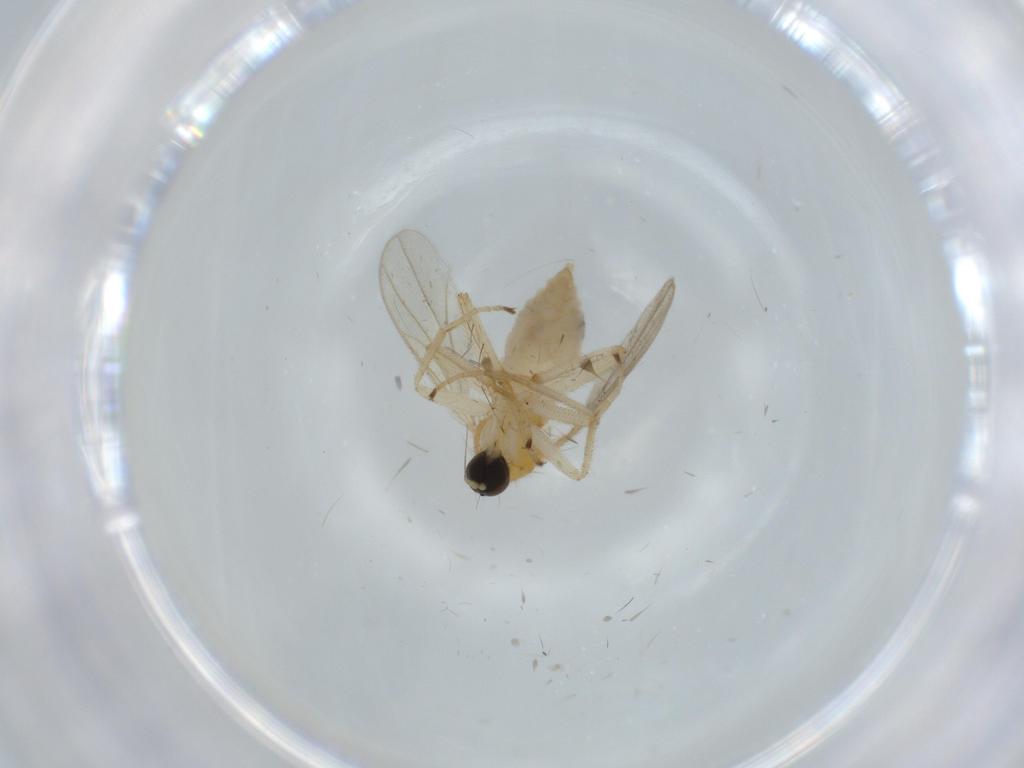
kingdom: Animalia
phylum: Arthropoda
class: Insecta
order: Diptera
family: Hybotidae
